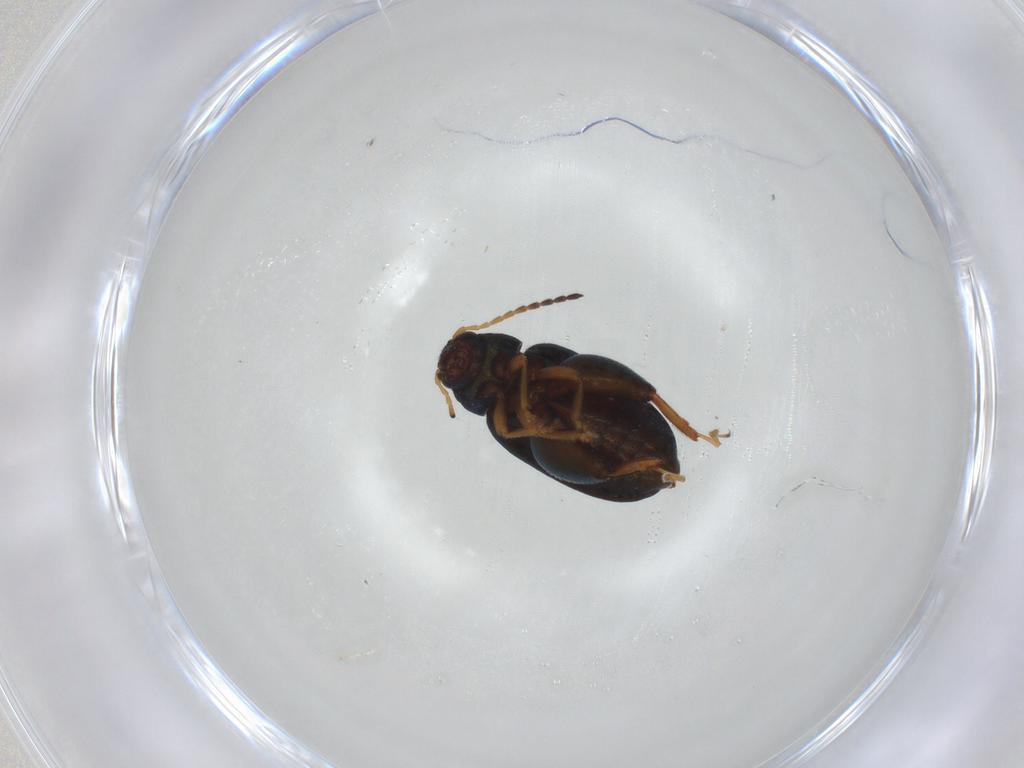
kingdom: Animalia
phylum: Arthropoda
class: Insecta
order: Coleoptera
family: Chrysomelidae
